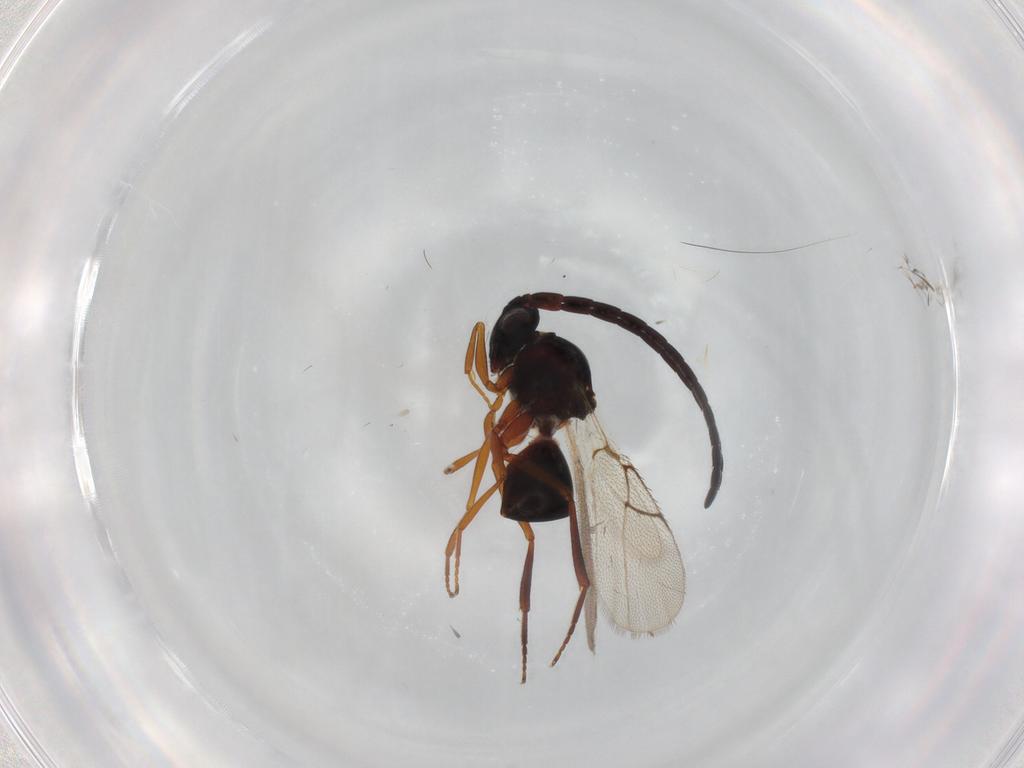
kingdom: Animalia
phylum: Arthropoda
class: Insecta
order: Hymenoptera
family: Figitidae
